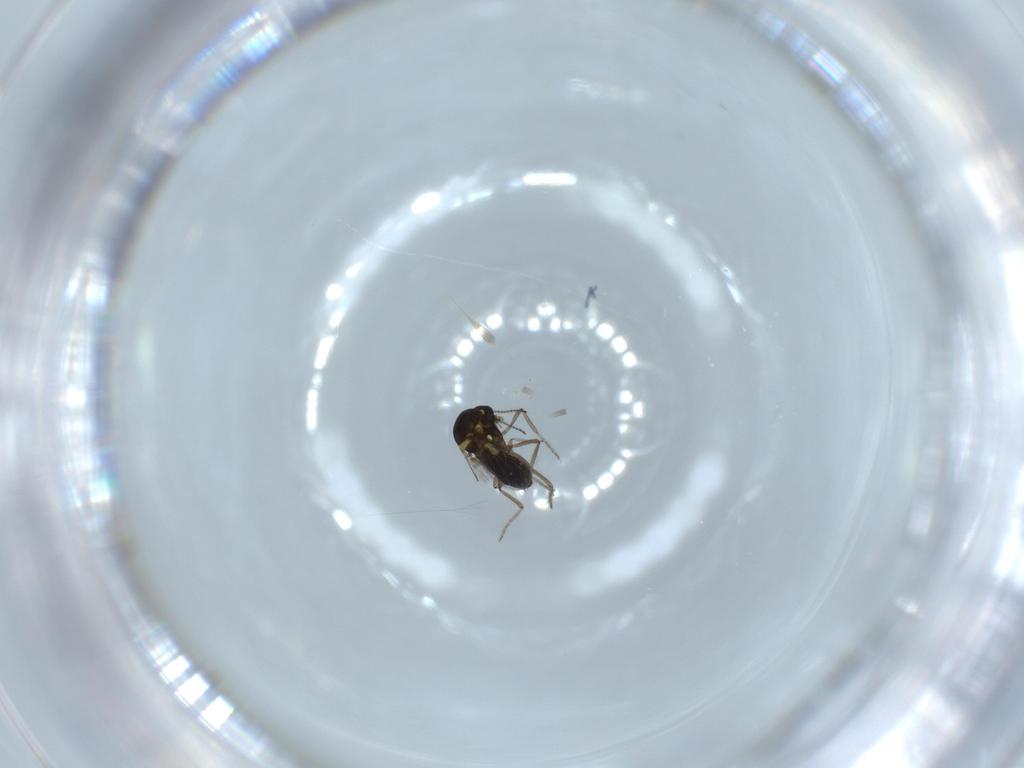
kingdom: Animalia
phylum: Arthropoda
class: Insecta
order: Diptera
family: Ceratopogonidae
